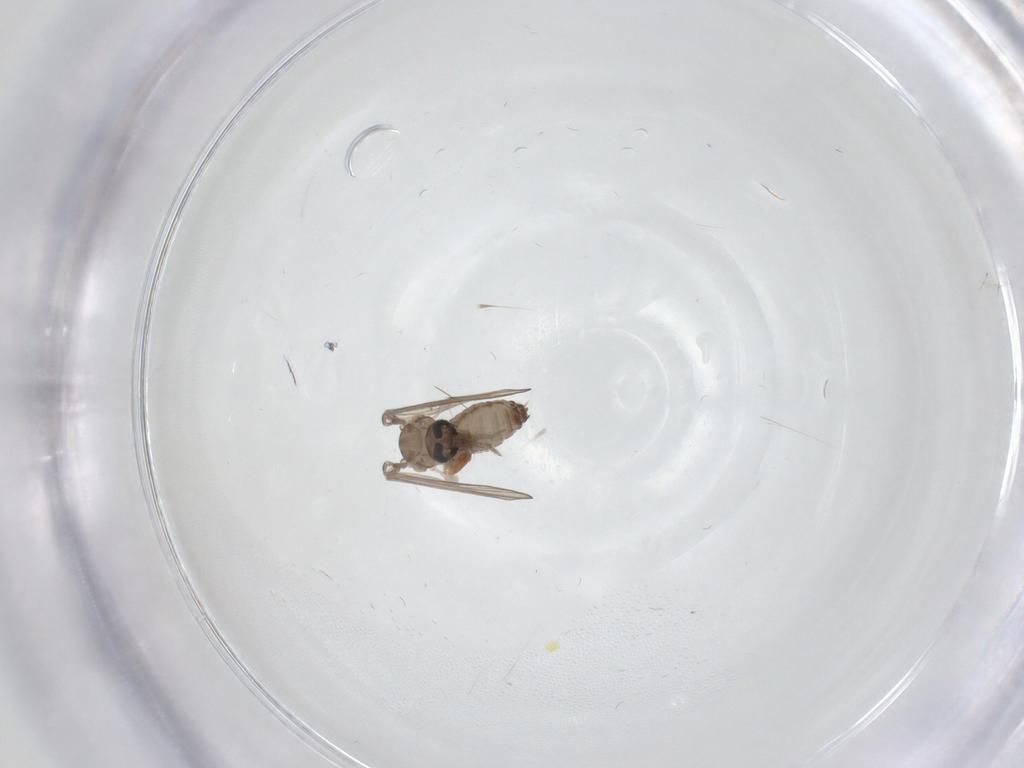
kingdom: Animalia
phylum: Arthropoda
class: Insecta
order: Diptera
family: Psychodidae
